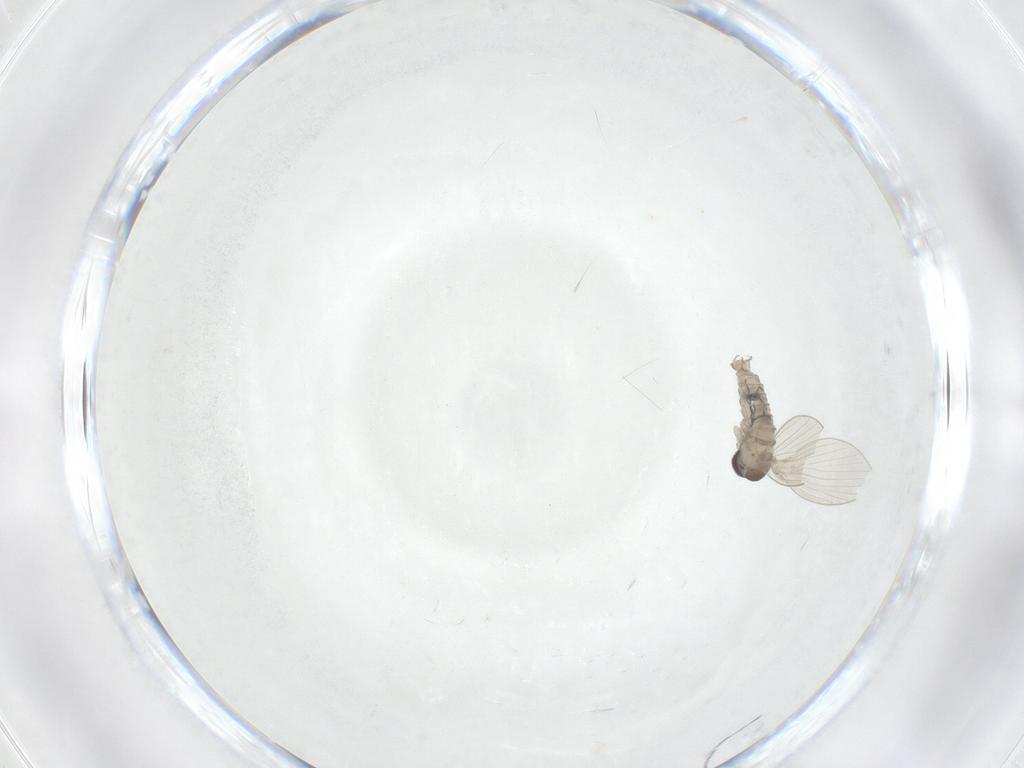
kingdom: Animalia
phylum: Arthropoda
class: Insecta
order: Diptera
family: Psychodidae
